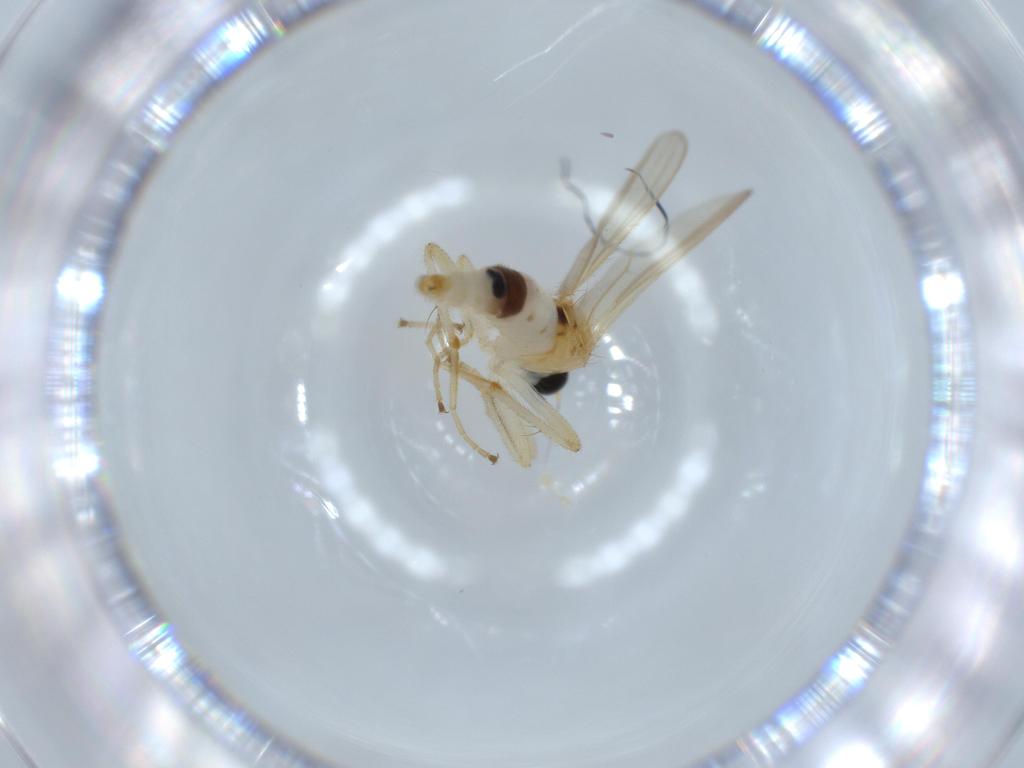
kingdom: Animalia
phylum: Arthropoda
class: Insecta
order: Diptera
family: Hybotidae
